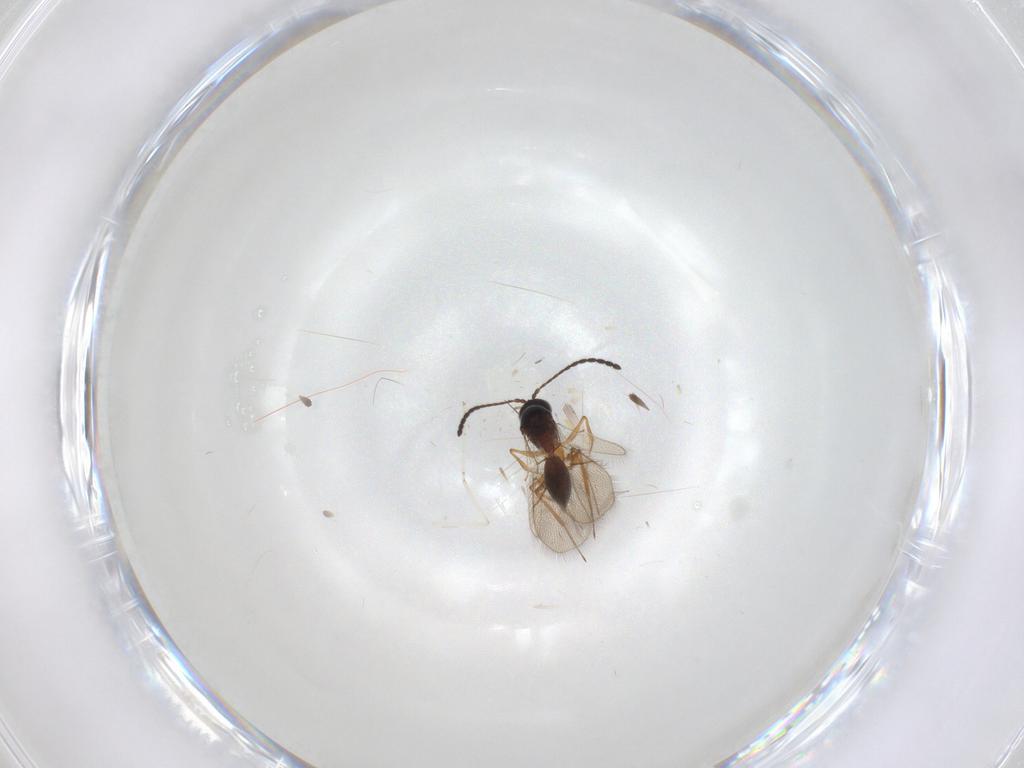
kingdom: Animalia
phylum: Arthropoda
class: Insecta
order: Hymenoptera
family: Figitidae
